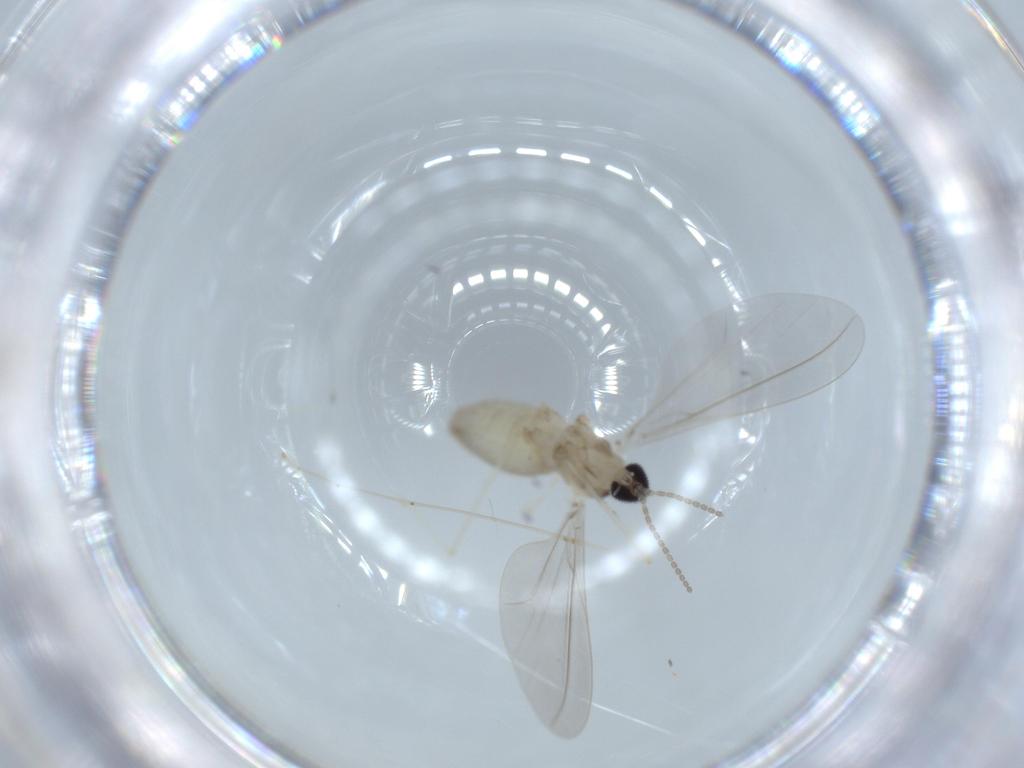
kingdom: Animalia
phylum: Arthropoda
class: Insecta
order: Diptera
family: Cecidomyiidae
